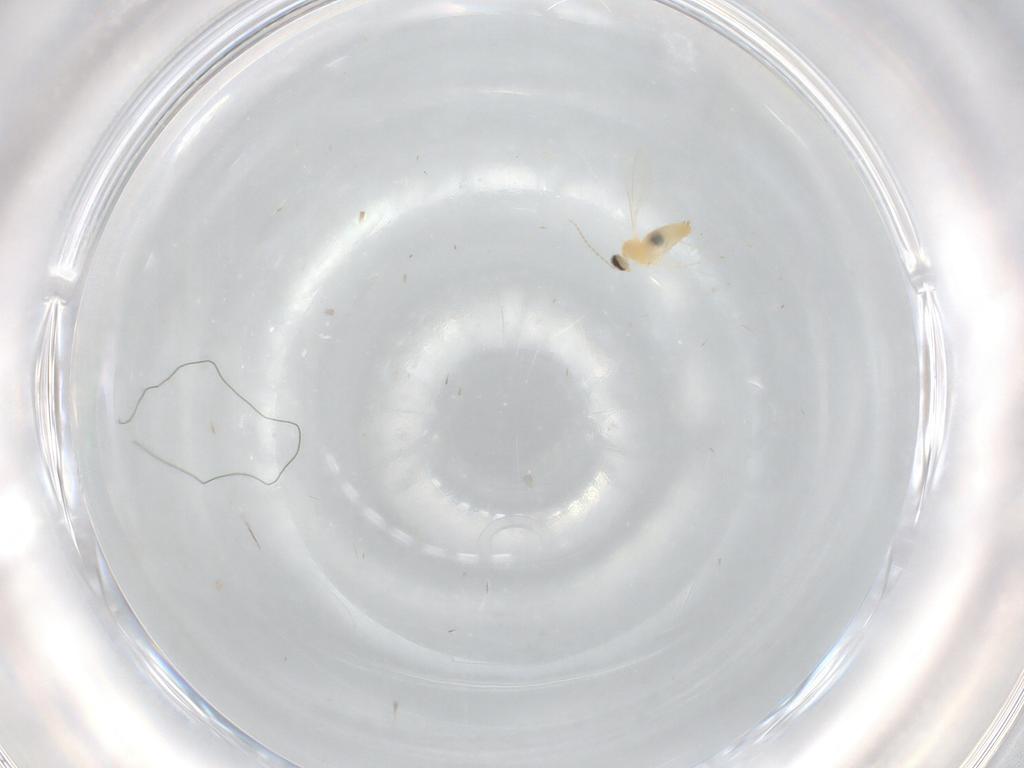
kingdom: Animalia
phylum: Arthropoda
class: Insecta
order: Diptera
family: Cecidomyiidae
